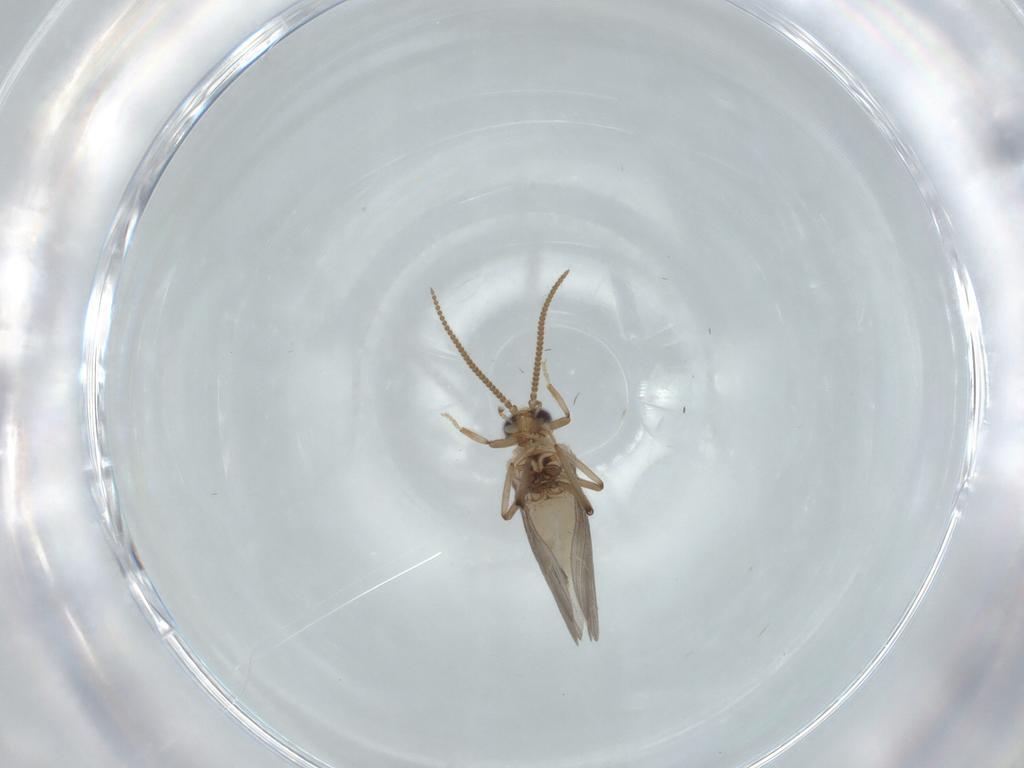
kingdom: Animalia
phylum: Arthropoda
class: Insecta
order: Neuroptera
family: Coniopterygidae
